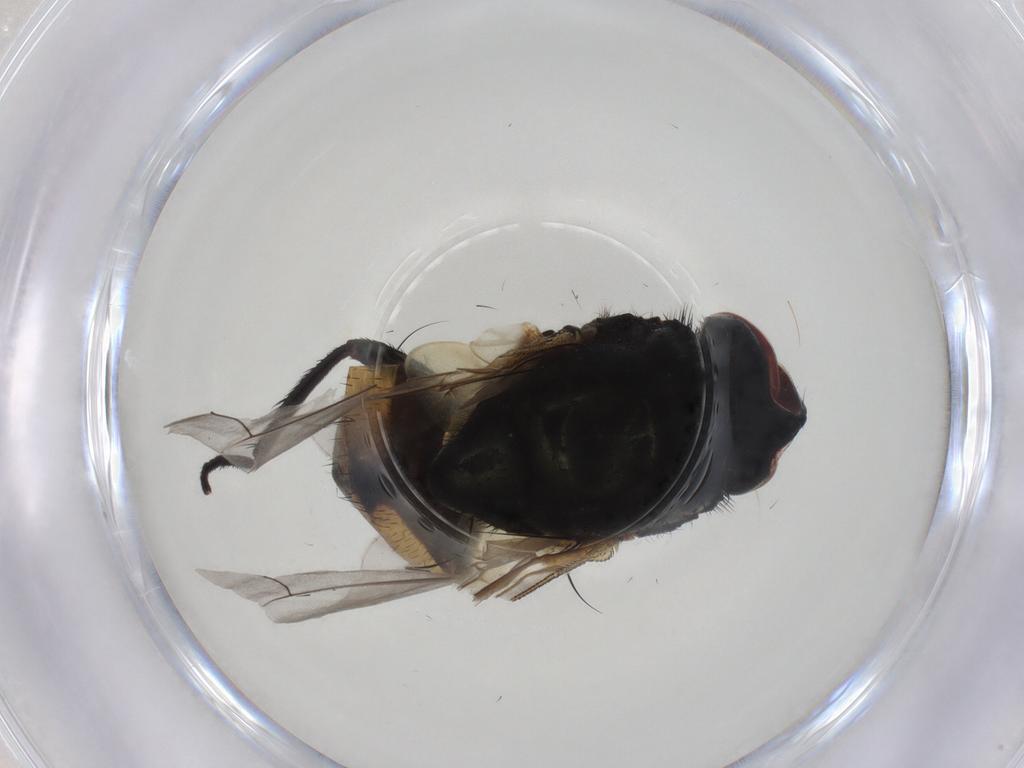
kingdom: Animalia
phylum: Arthropoda
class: Insecta
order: Diptera
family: Muscidae
